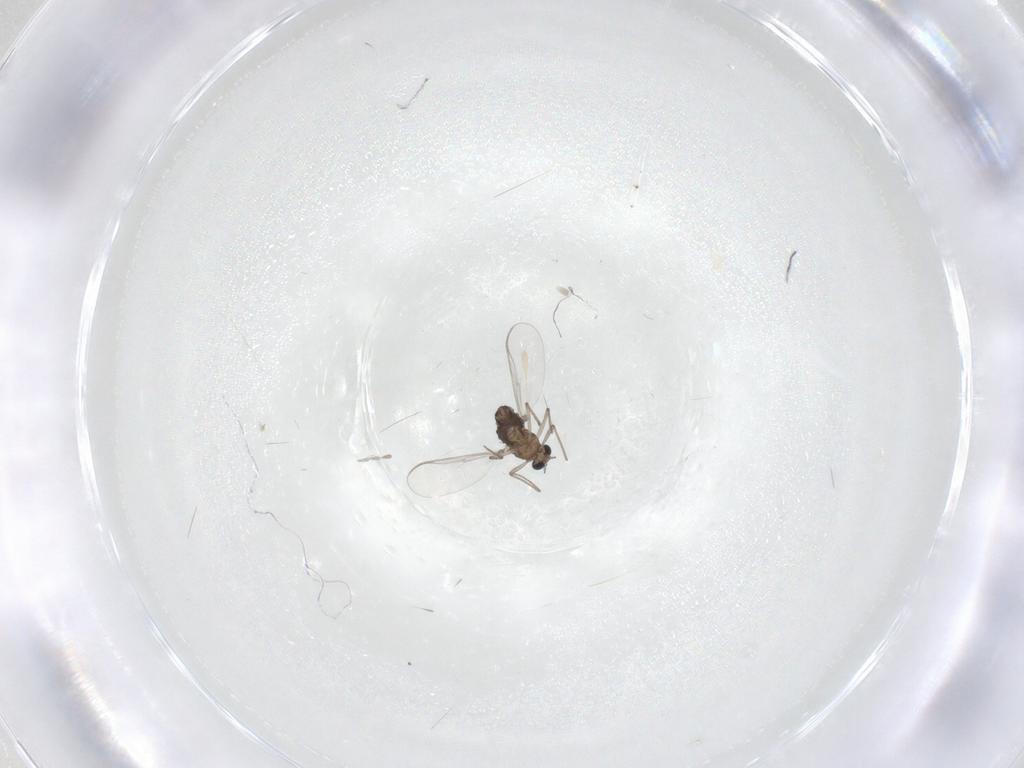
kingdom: Animalia
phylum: Arthropoda
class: Insecta
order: Diptera
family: Chironomidae
